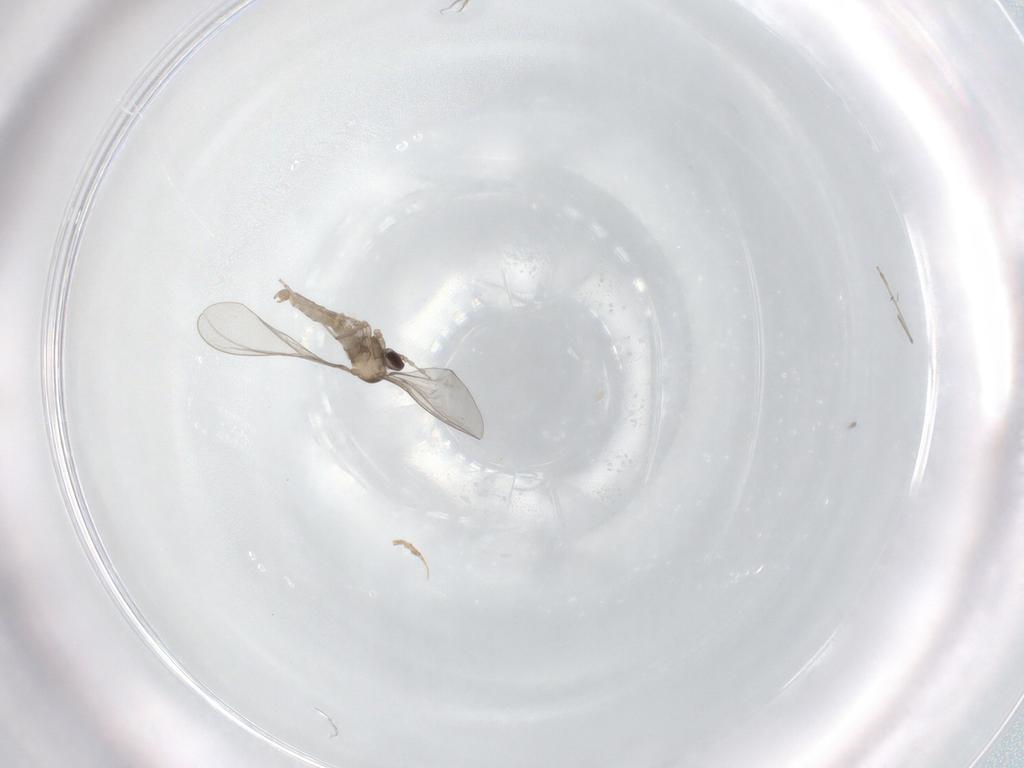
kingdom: Animalia
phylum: Arthropoda
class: Insecta
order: Diptera
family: Cecidomyiidae
